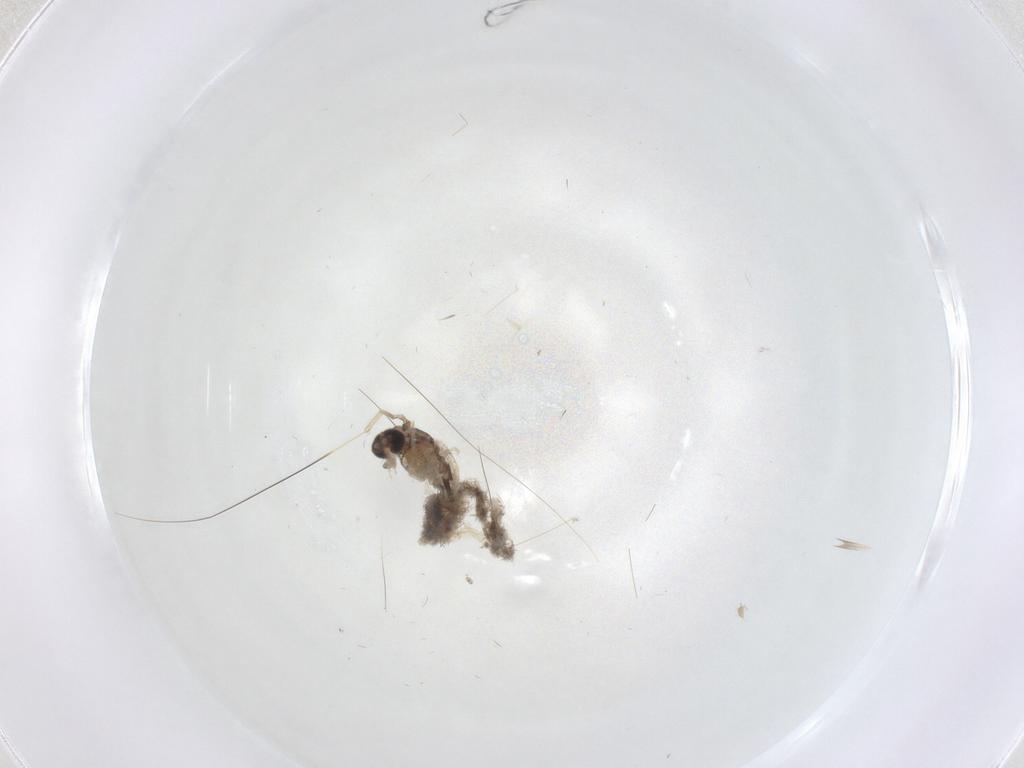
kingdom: Animalia
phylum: Arthropoda
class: Insecta
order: Diptera
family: Chironomidae
